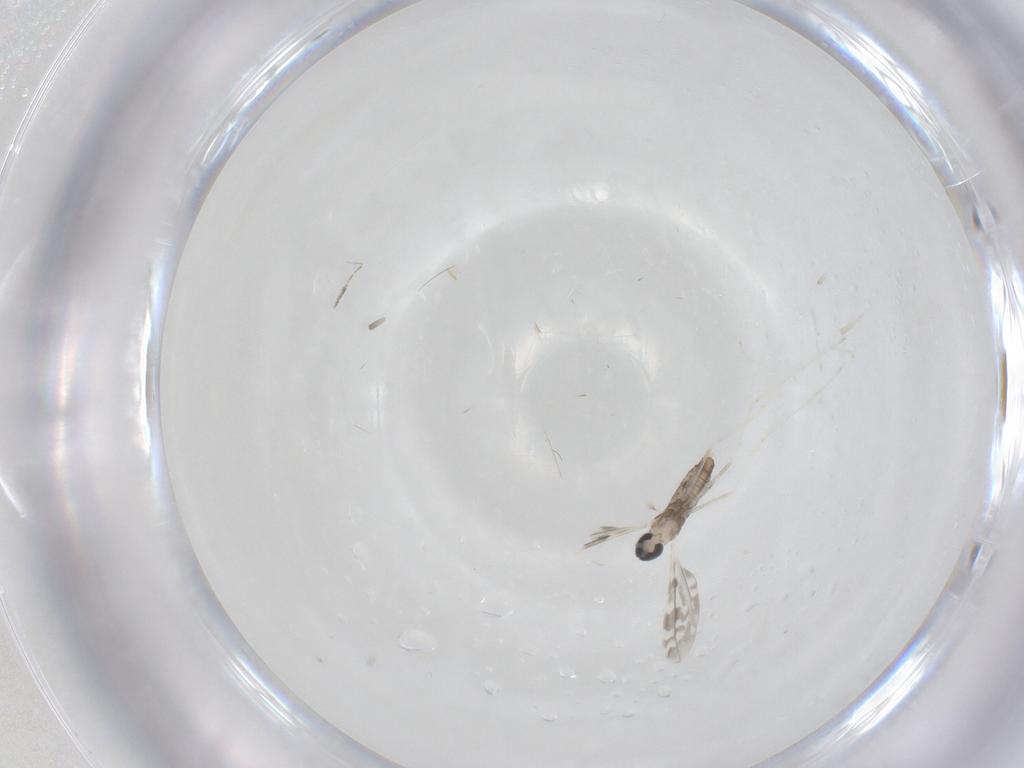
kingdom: Animalia
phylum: Arthropoda
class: Insecta
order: Diptera
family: Cecidomyiidae
